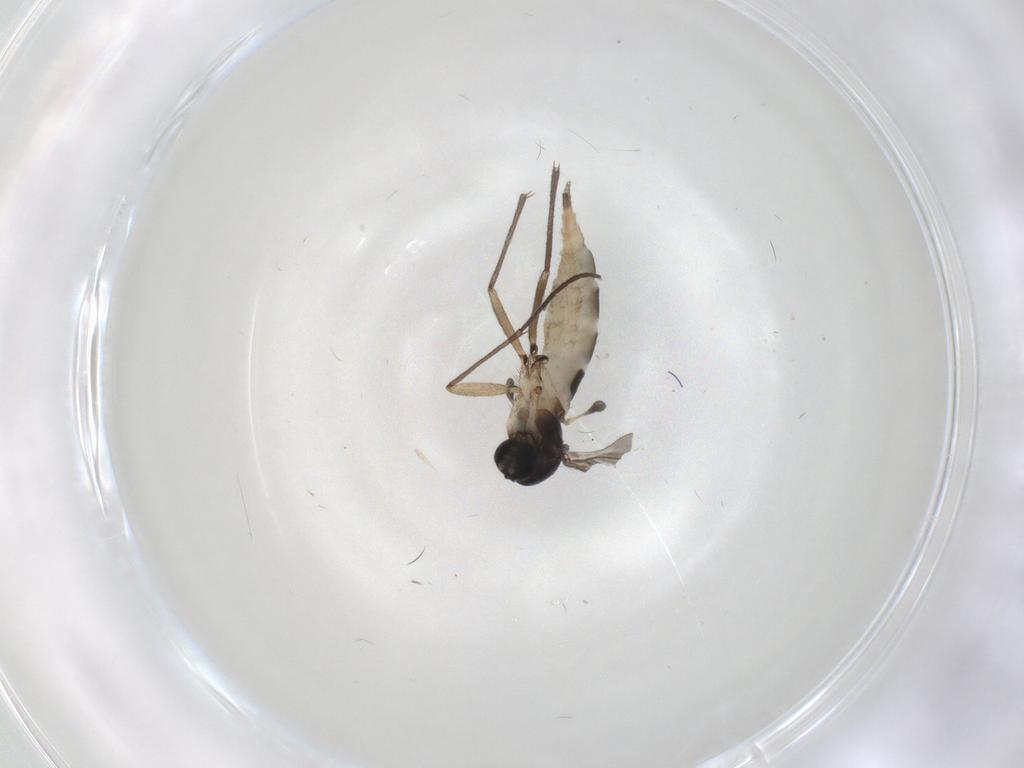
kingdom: Animalia
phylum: Arthropoda
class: Insecta
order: Diptera
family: Sciaridae
